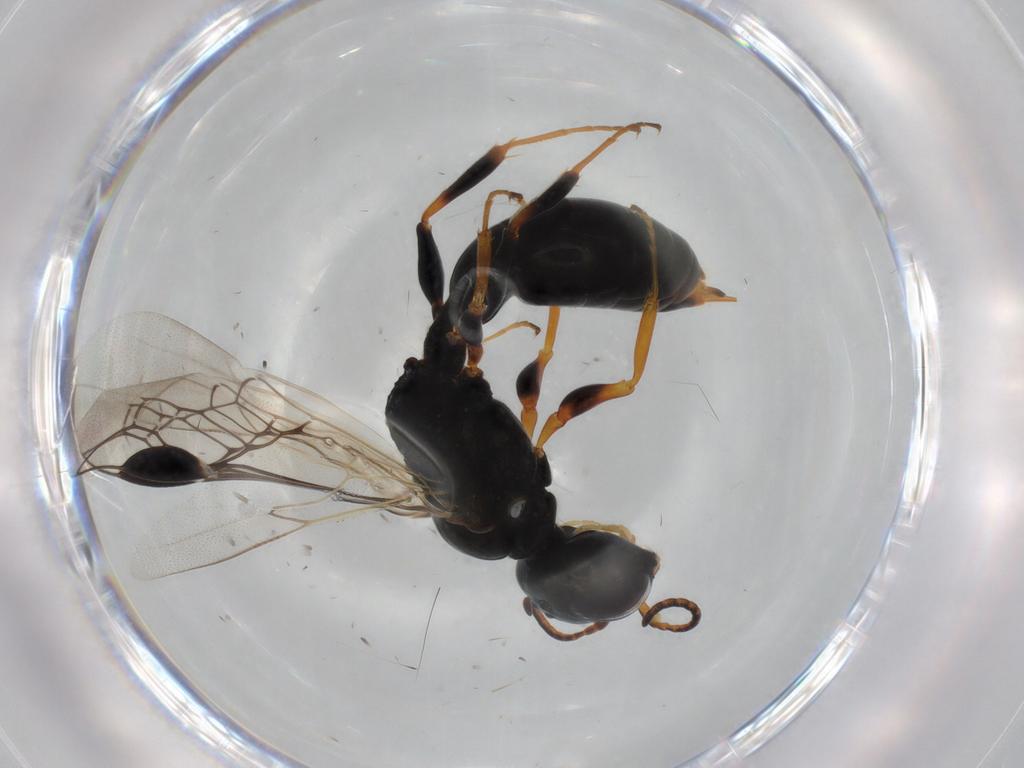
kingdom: Animalia
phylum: Arthropoda
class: Insecta
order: Hymenoptera
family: Pemphredonidae
